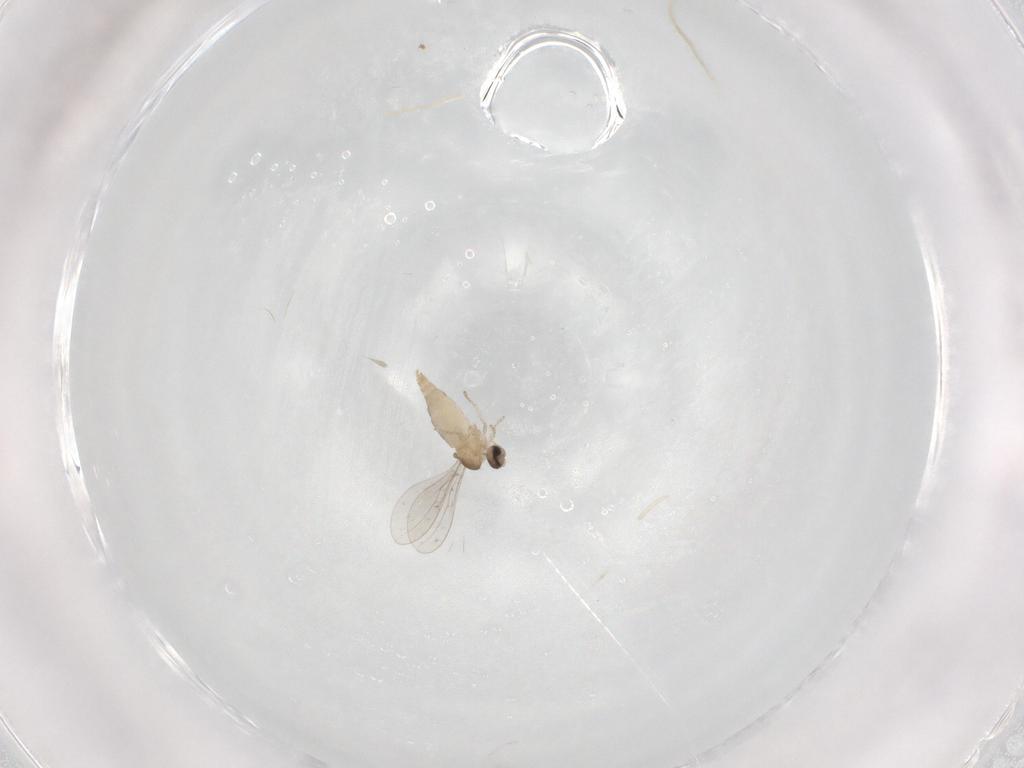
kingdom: Animalia
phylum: Arthropoda
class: Insecta
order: Diptera
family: Cecidomyiidae
